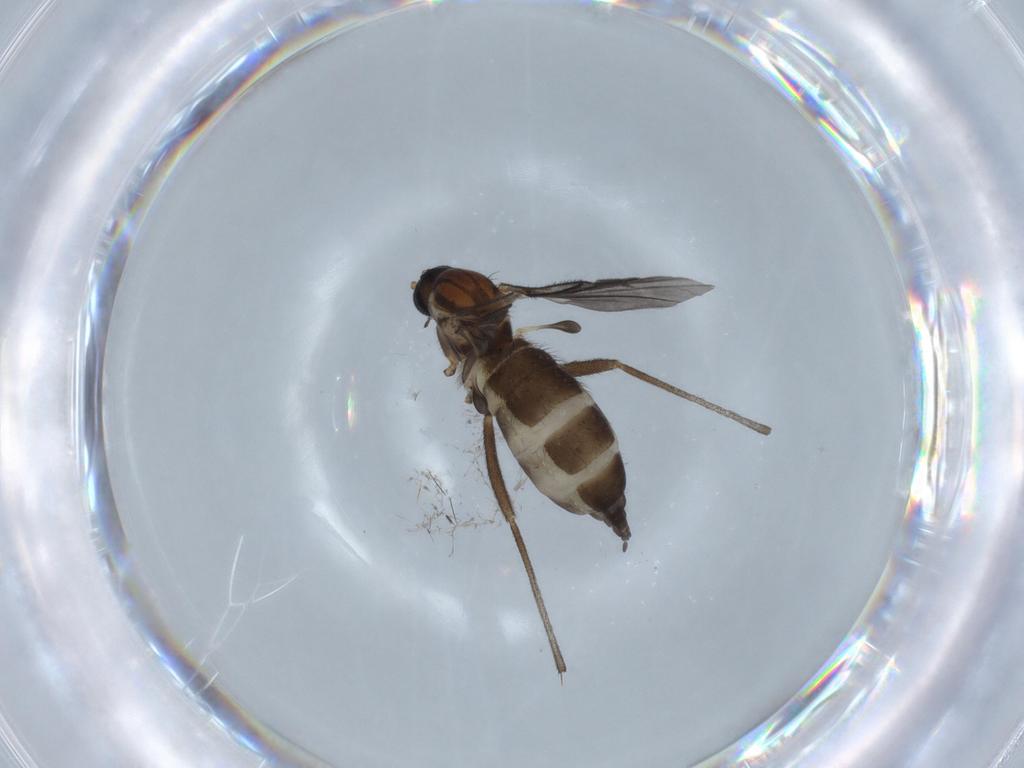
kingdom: Animalia
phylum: Arthropoda
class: Insecta
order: Diptera
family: Sciaridae
